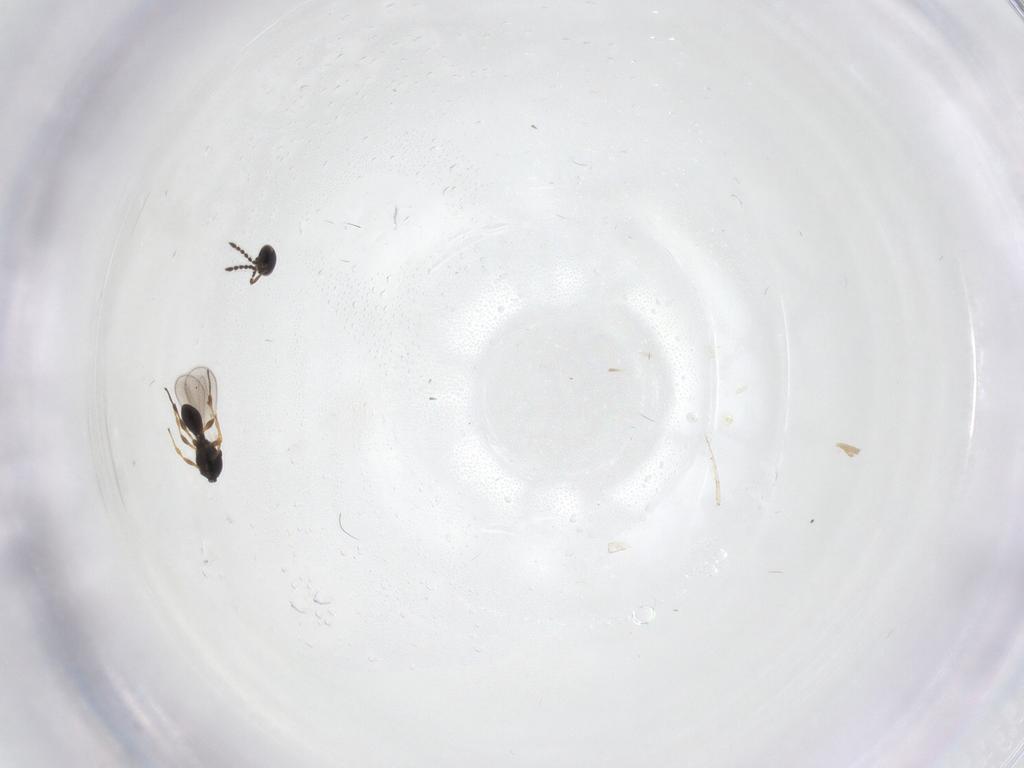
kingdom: Animalia
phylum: Arthropoda
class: Insecta
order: Hymenoptera
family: Platygastridae
